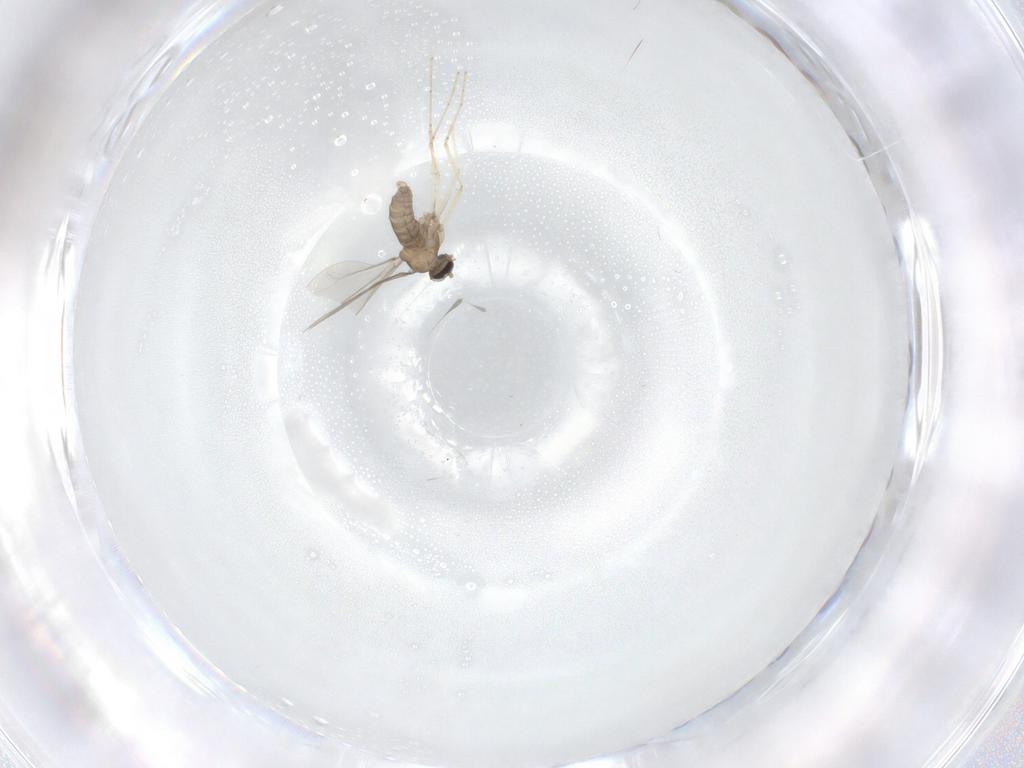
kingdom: Animalia
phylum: Arthropoda
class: Insecta
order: Diptera
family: Cecidomyiidae
